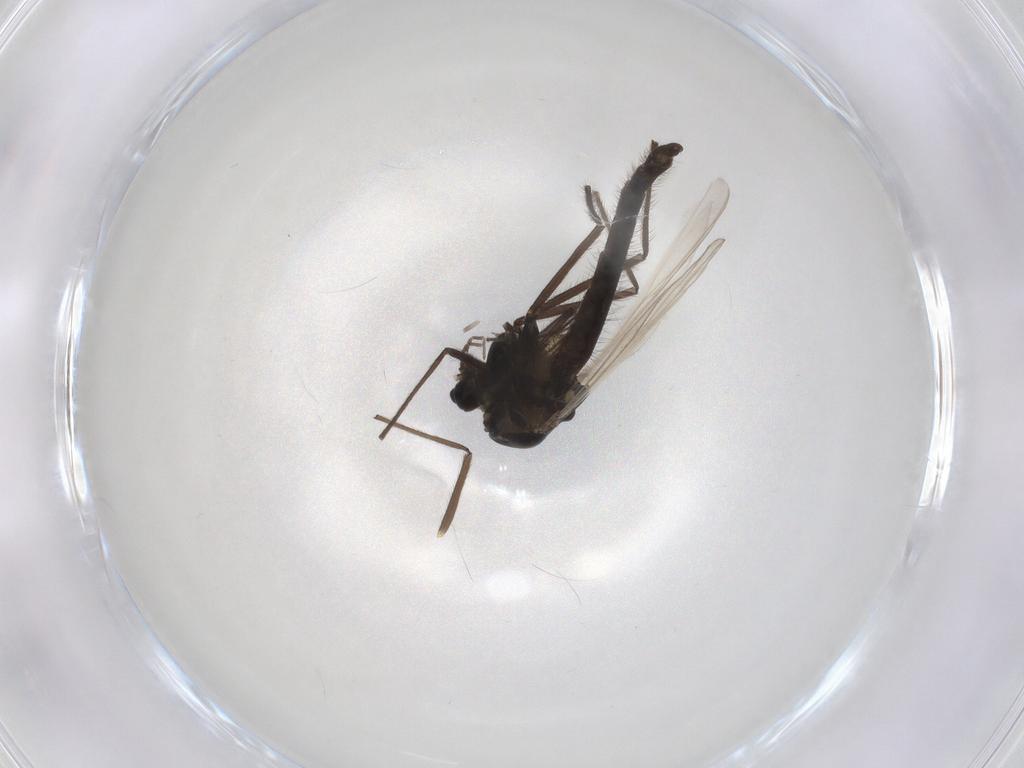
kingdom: Animalia
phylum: Arthropoda
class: Insecta
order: Diptera
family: Chironomidae
